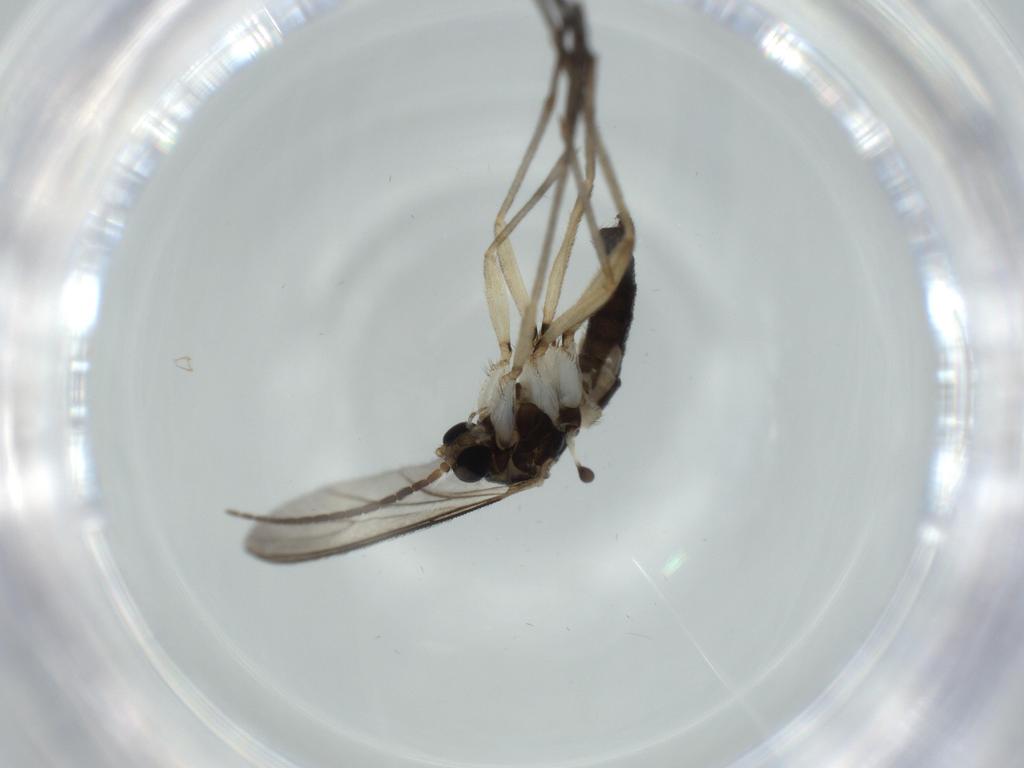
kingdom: Animalia
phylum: Arthropoda
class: Insecta
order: Diptera
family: Sciaridae
